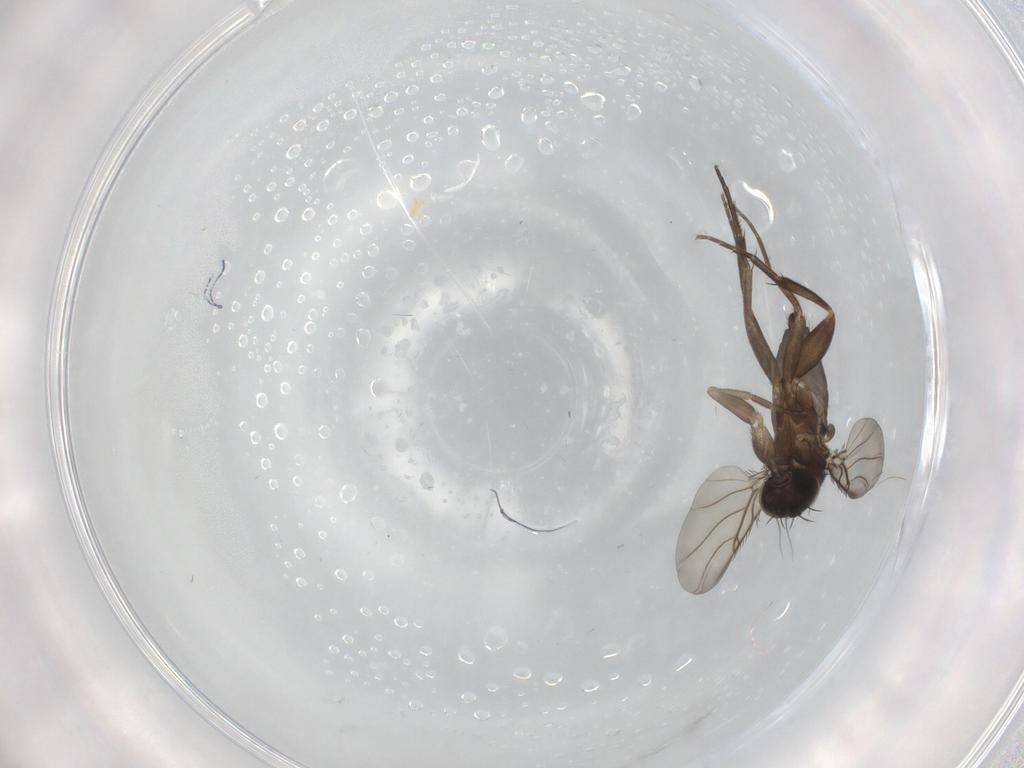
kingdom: Animalia
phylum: Arthropoda
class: Insecta
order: Diptera
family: Phoridae
